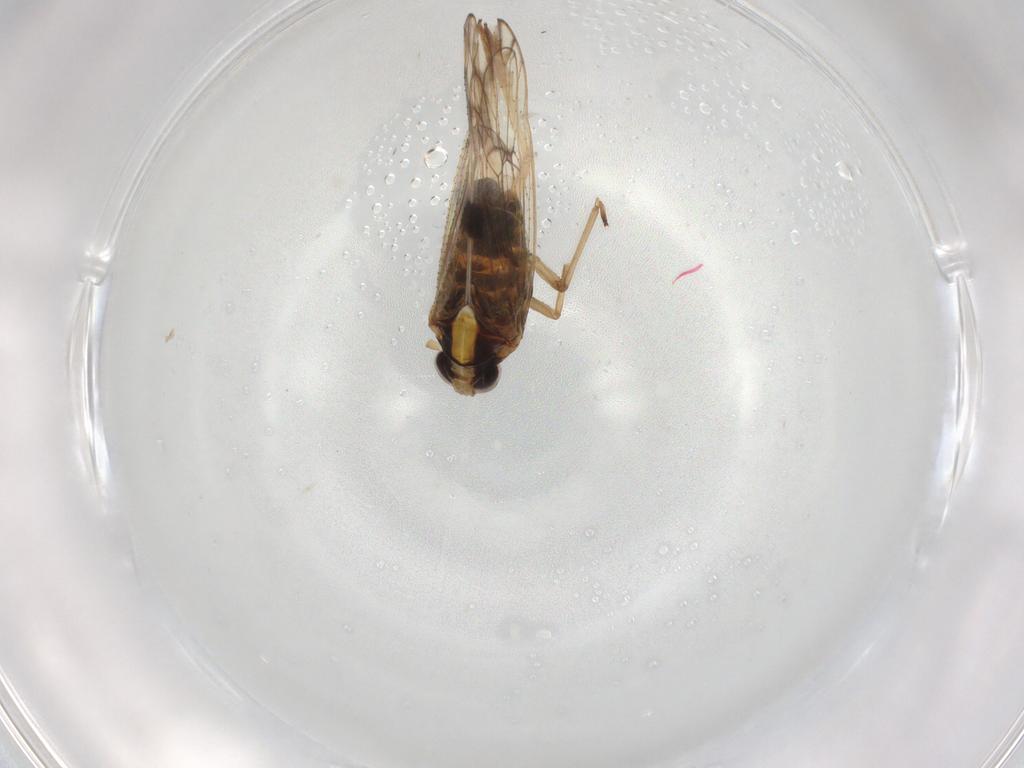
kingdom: Animalia
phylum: Arthropoda
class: Insecta
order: Hemiptera
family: Delphacidae
